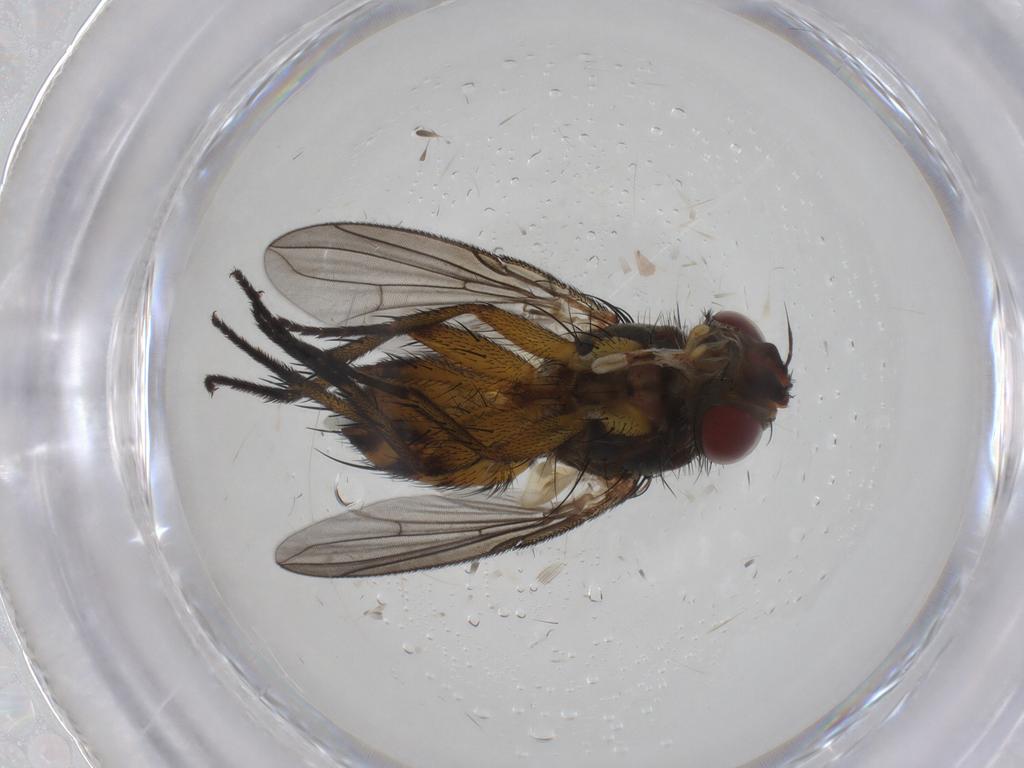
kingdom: Animalia
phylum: Arthropoda
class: Insecta
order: Diptera
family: Tachinidae
